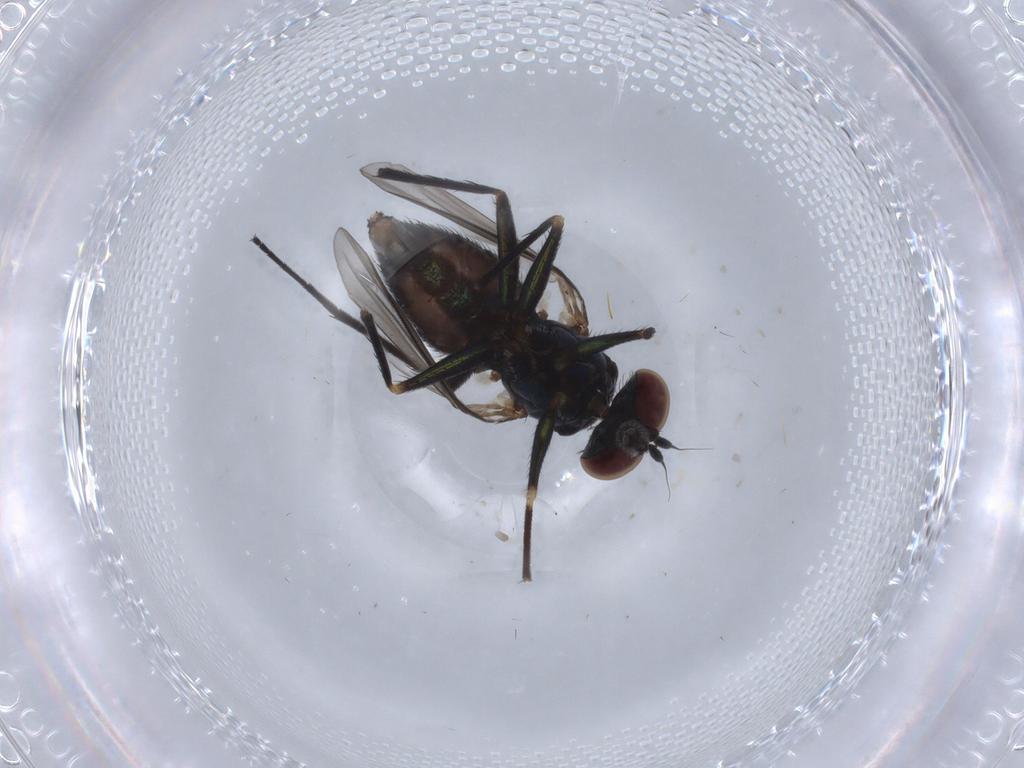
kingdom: Animalia
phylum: Arthropoda
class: Insecta
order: Diptera
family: Dolichopodidae
